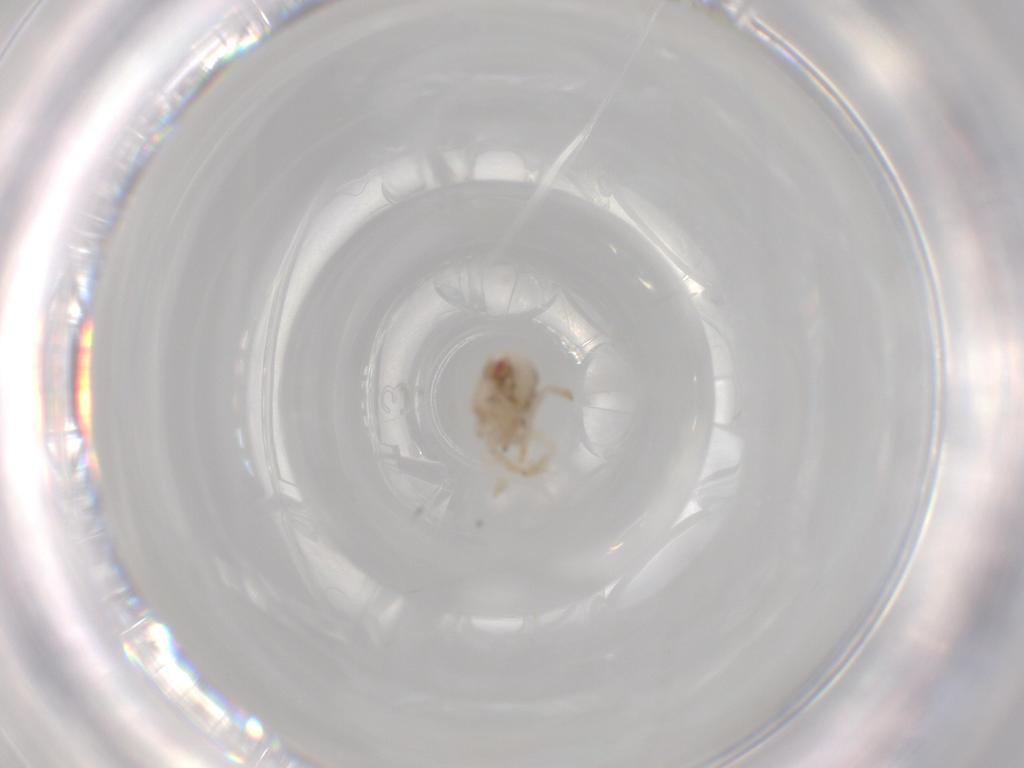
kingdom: Animalia
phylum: Arthropoda
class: Insecta
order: Hemiptera
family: Acanaloniidae
